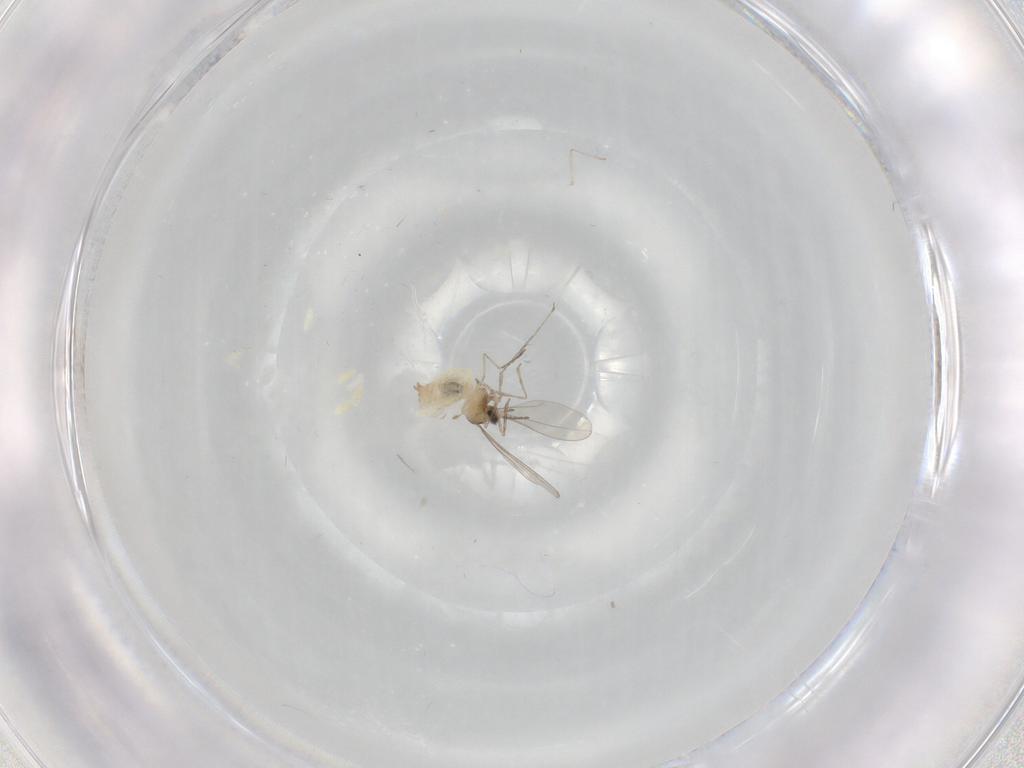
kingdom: Animalia
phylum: Arthropoda
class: Insecta
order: Diptera
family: Cecidomyiidae
